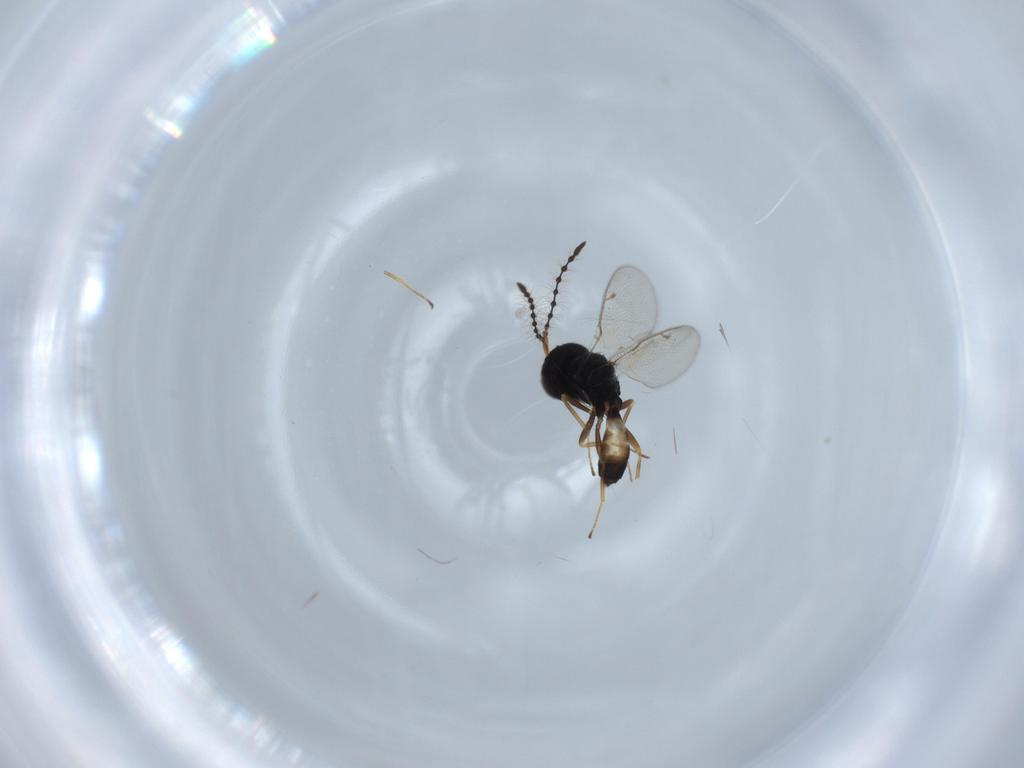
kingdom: Animalia
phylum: Arthropoda
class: Insecta
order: Hymenoptera
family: Pteromalidae
